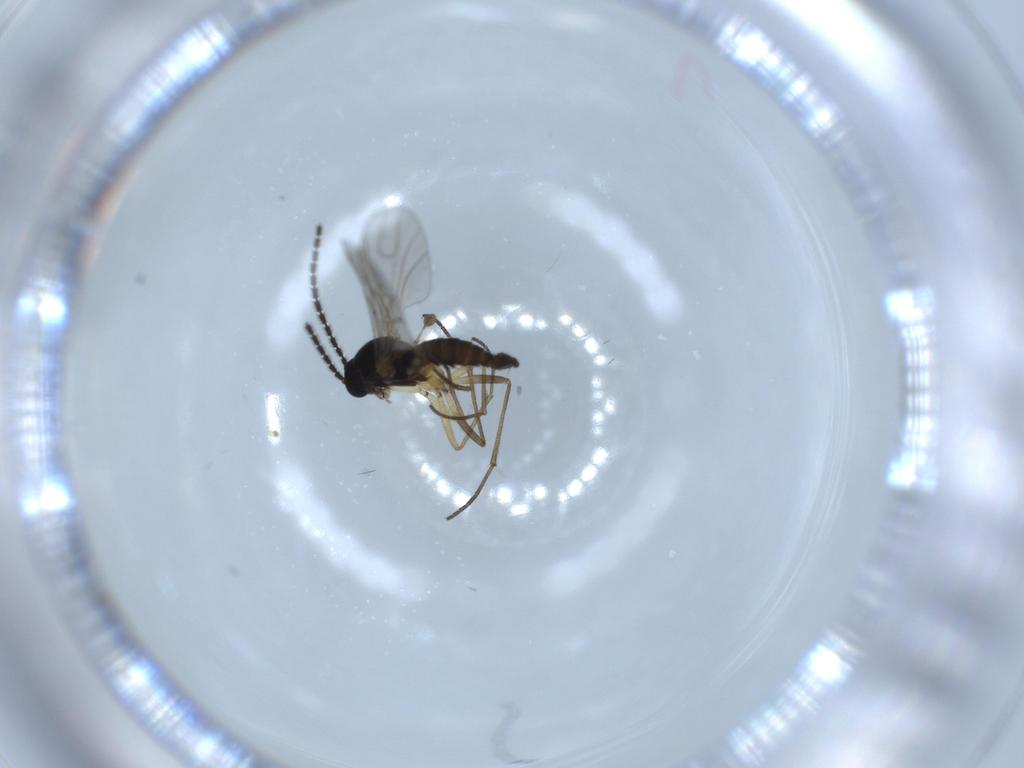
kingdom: Animalia
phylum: Arthropoda
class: Insecta
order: Diptera
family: Sciaridae
